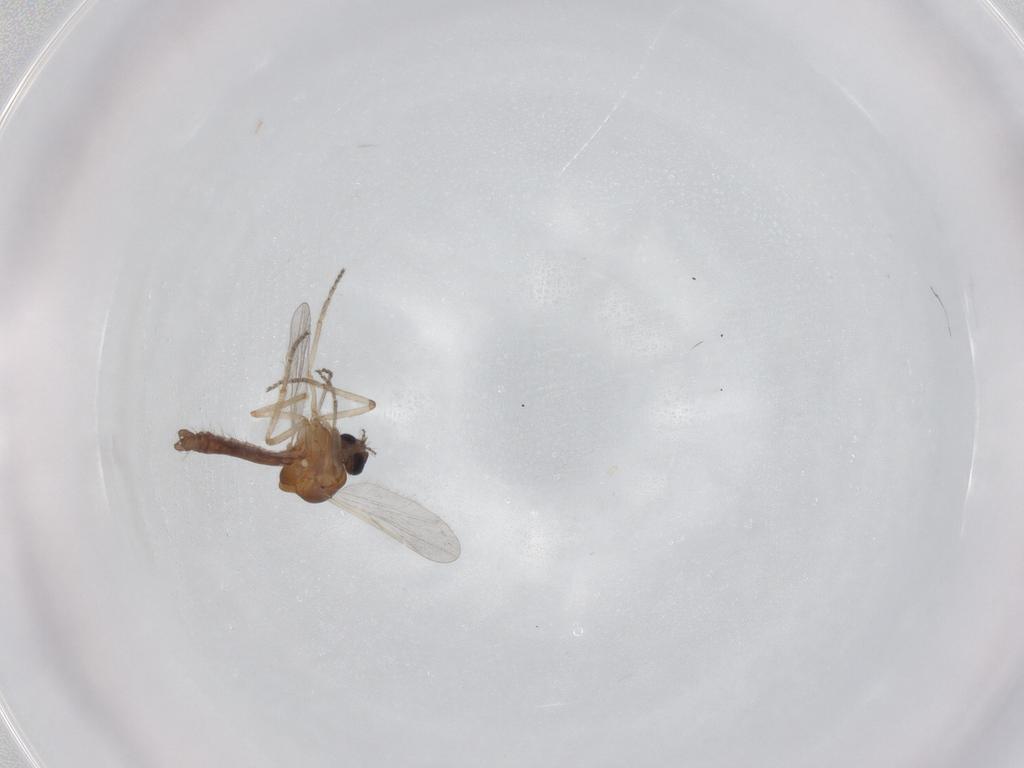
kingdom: Animalia
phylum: Arthropoda
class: Insecta
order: Diptera
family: Ceratopogonidae
